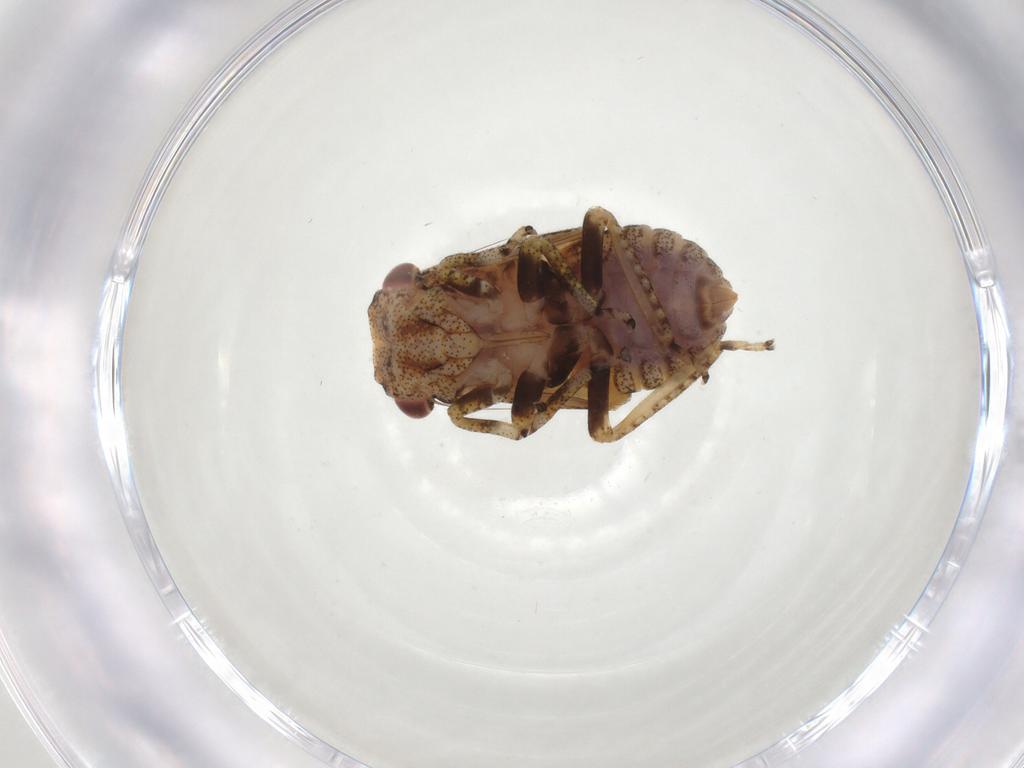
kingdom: Animalia
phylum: Arthropoda
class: Insecta
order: Hemiptera
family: Cicadellidae
